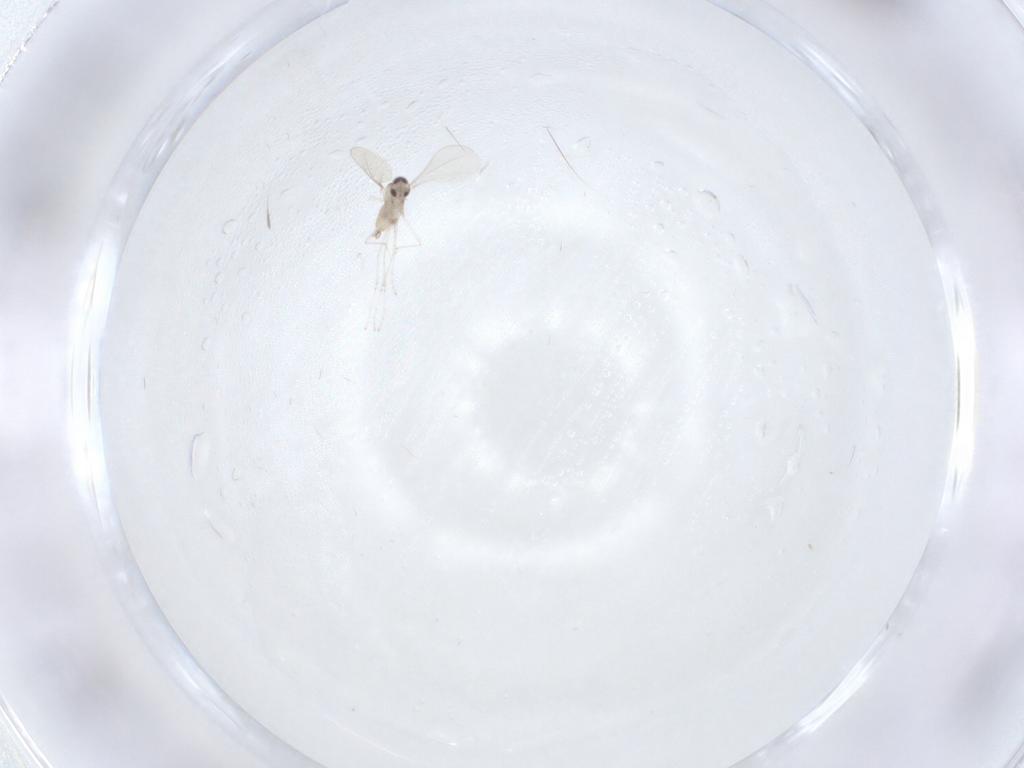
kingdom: Animalia
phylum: Arthropoda
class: Insecta
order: Diptera
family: Cecidomyiidae
